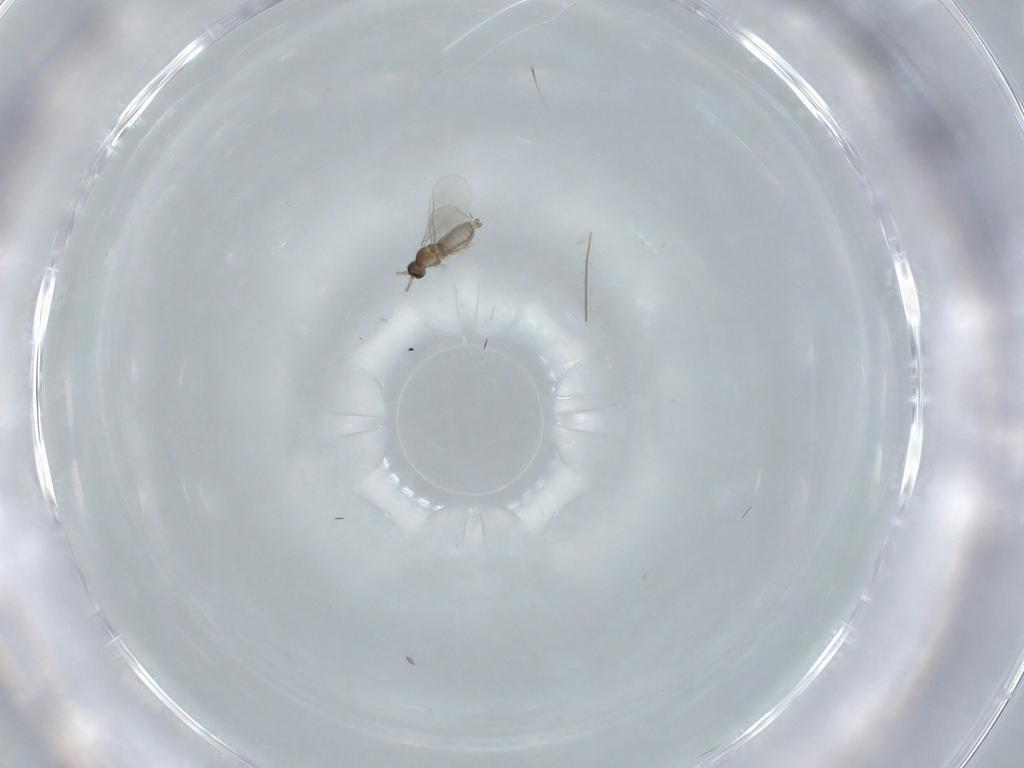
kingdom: Animalia
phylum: Arthropoda
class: Insecta
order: Diptera
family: Cecidomyiidae
